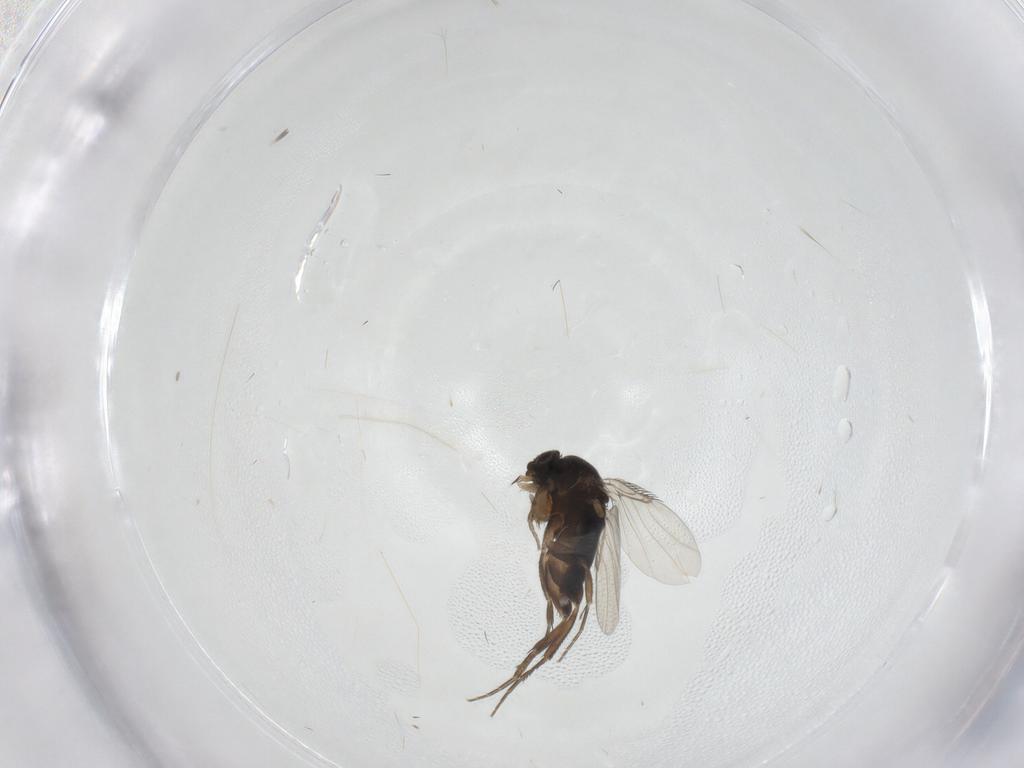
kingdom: Animalia
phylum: Arthropoda
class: Insecta
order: Diptera
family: Phoridae
